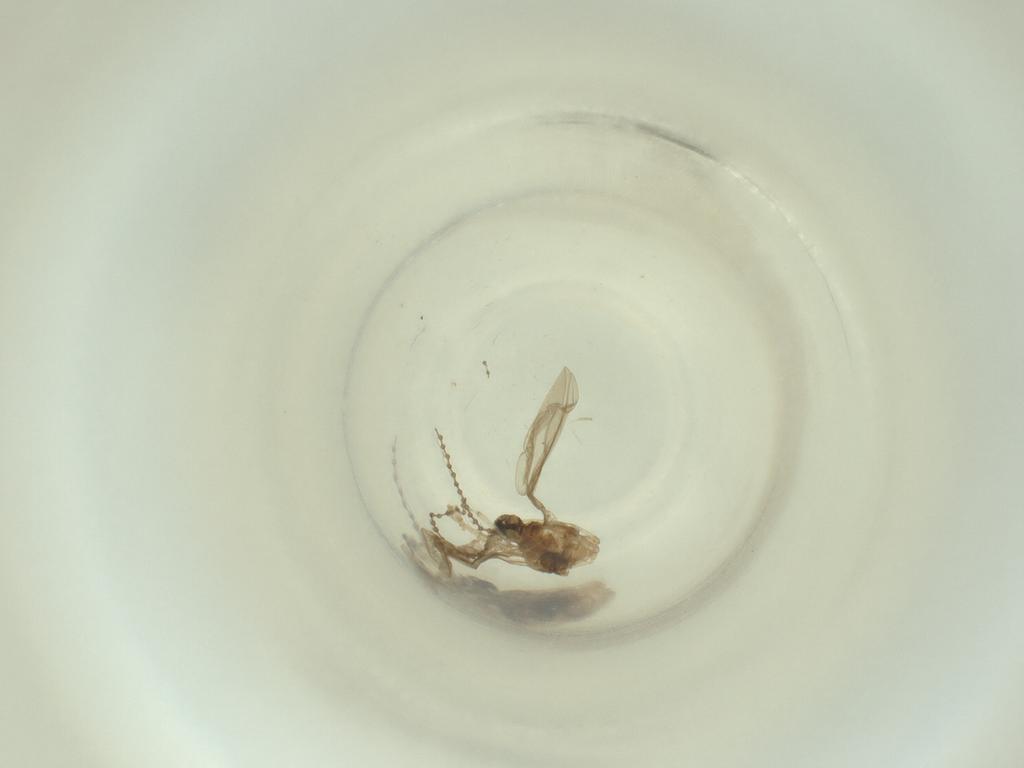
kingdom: Animalia
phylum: Arthropoda
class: Insecta
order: Diptera
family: Cecidomyiidae
